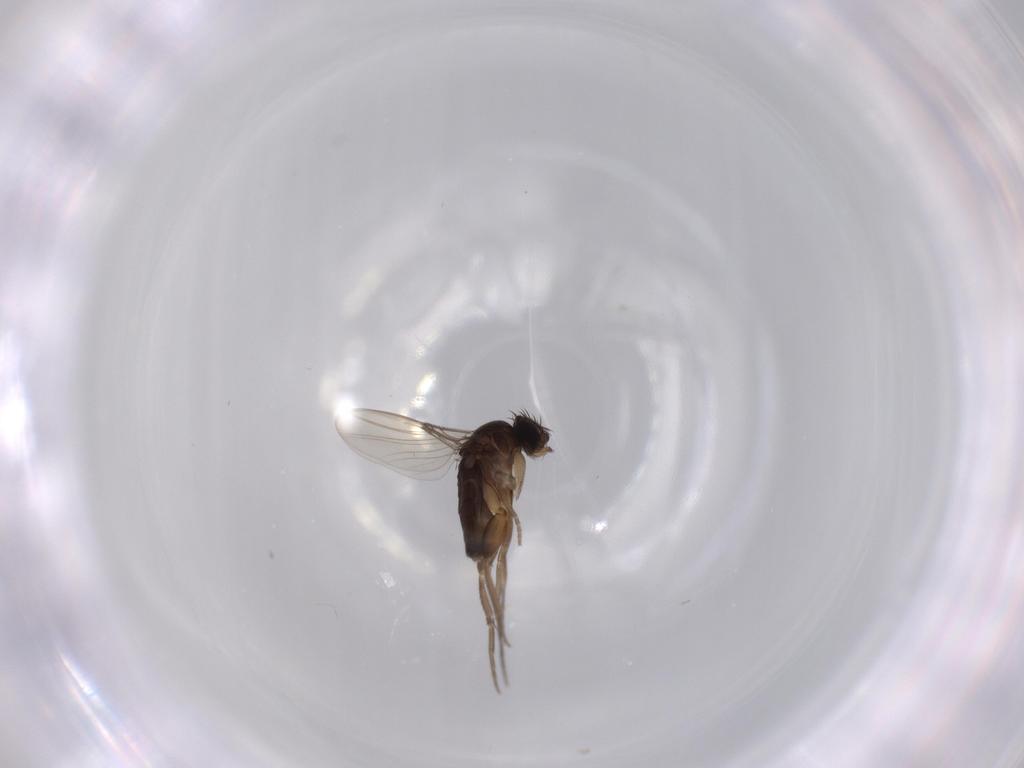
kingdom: Animalia
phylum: Arthropoda
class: Insecta
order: Diptera
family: Phoridae
